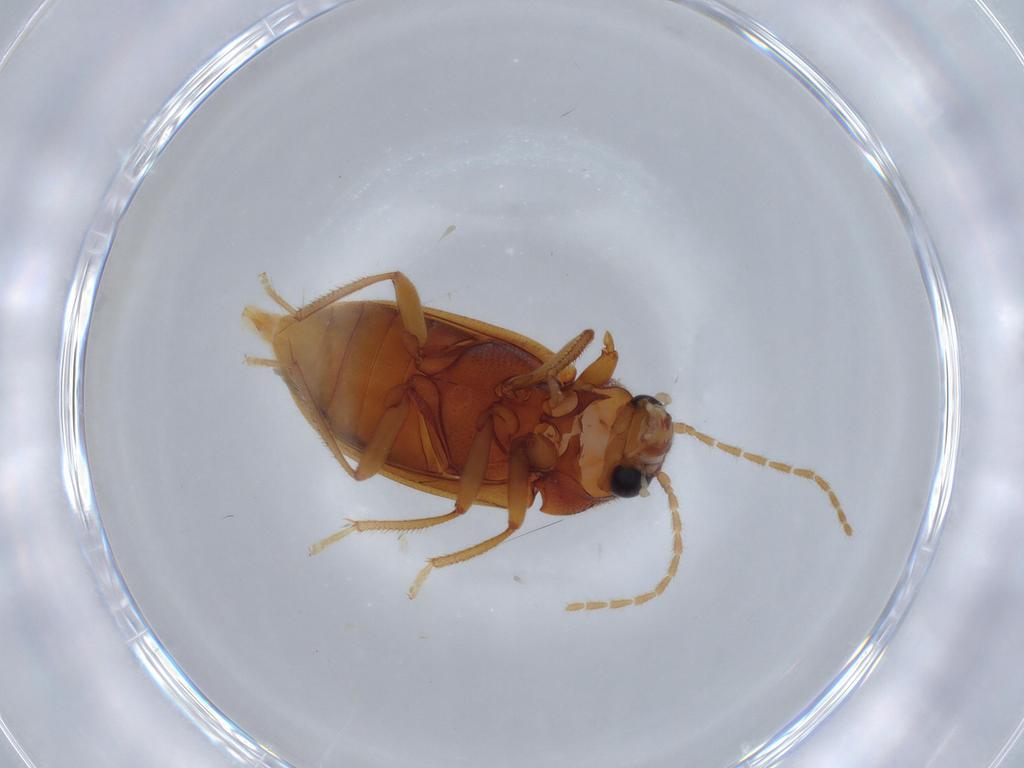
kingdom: Animalia
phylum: Arthropoda
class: Insecta
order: Coleoptera
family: Ptilodactylidae
